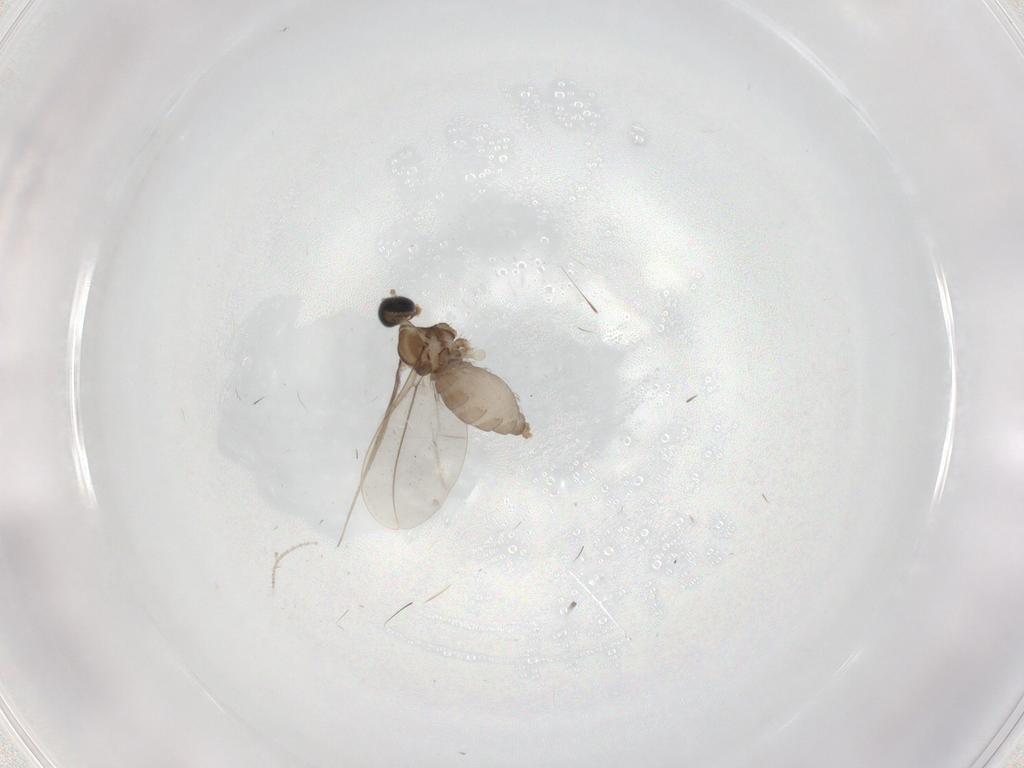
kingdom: Animalia
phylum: Arthropoda
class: Insecta
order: Diptera
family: Cecidomyiidae
